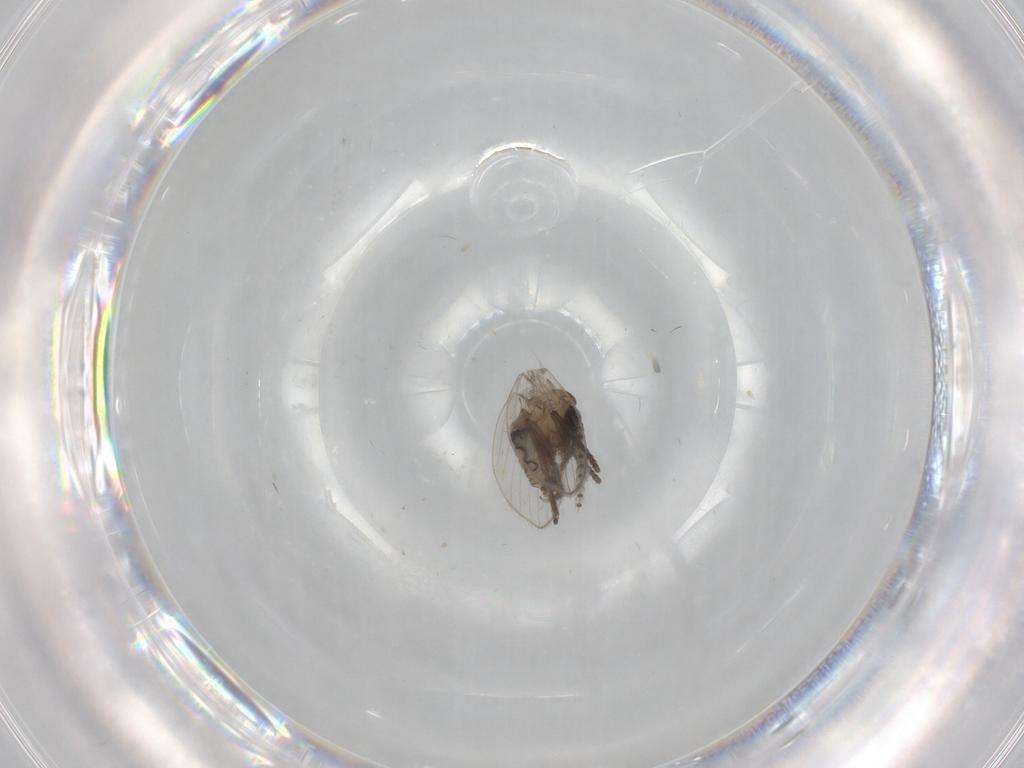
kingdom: Animalia
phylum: Arthropoda
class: Insecta
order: Diptera
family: Psychodidae
